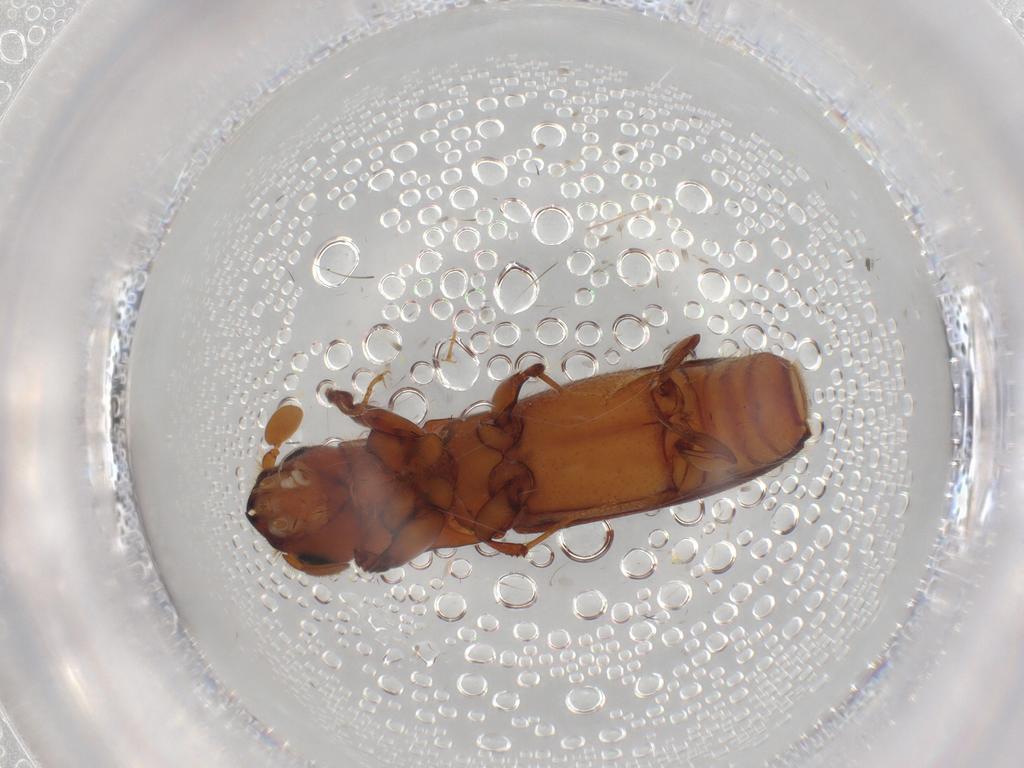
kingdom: Animalia
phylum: Arthropoda
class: Insecta
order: Coleoptera
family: Curculionidae
